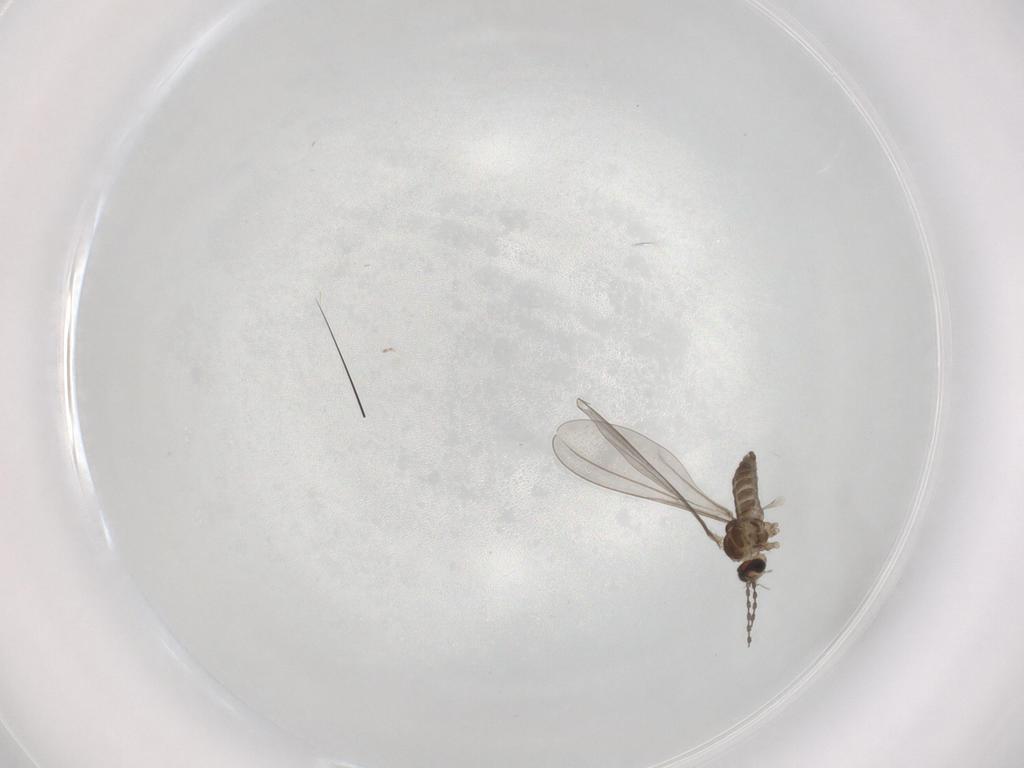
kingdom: Animalia
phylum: Arthropoda
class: Insecta
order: Diptera
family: Cecidomyiidae
